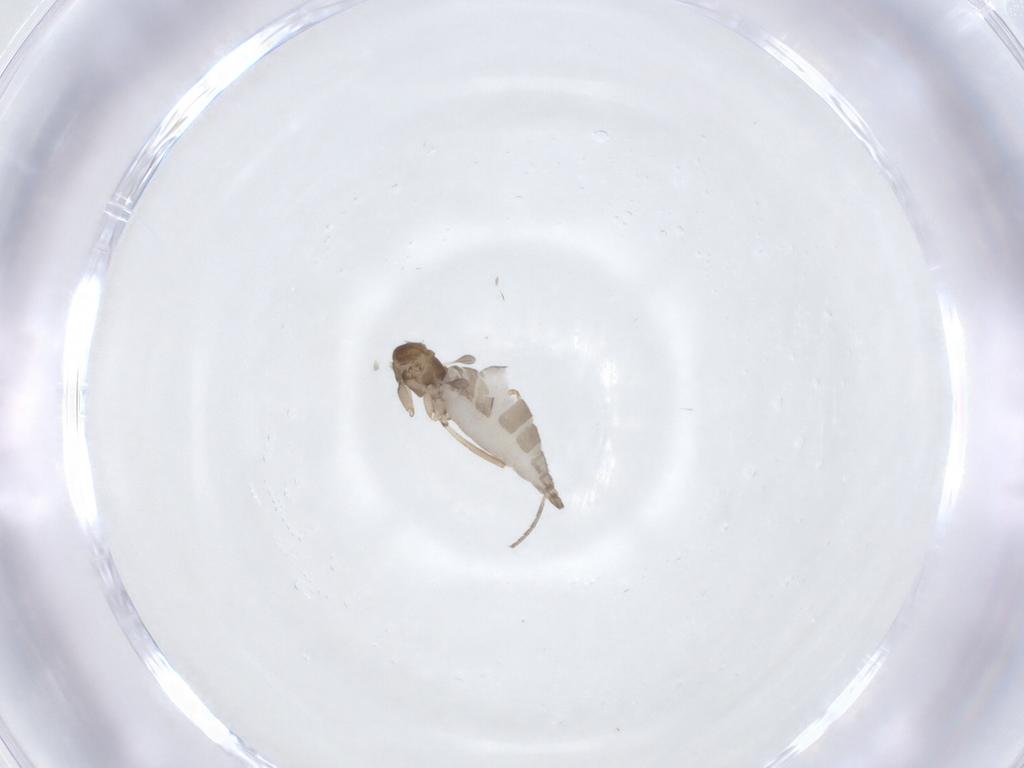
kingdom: Animalia
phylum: Arthropoda
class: Insecta
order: Diptera
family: Sciaridae
